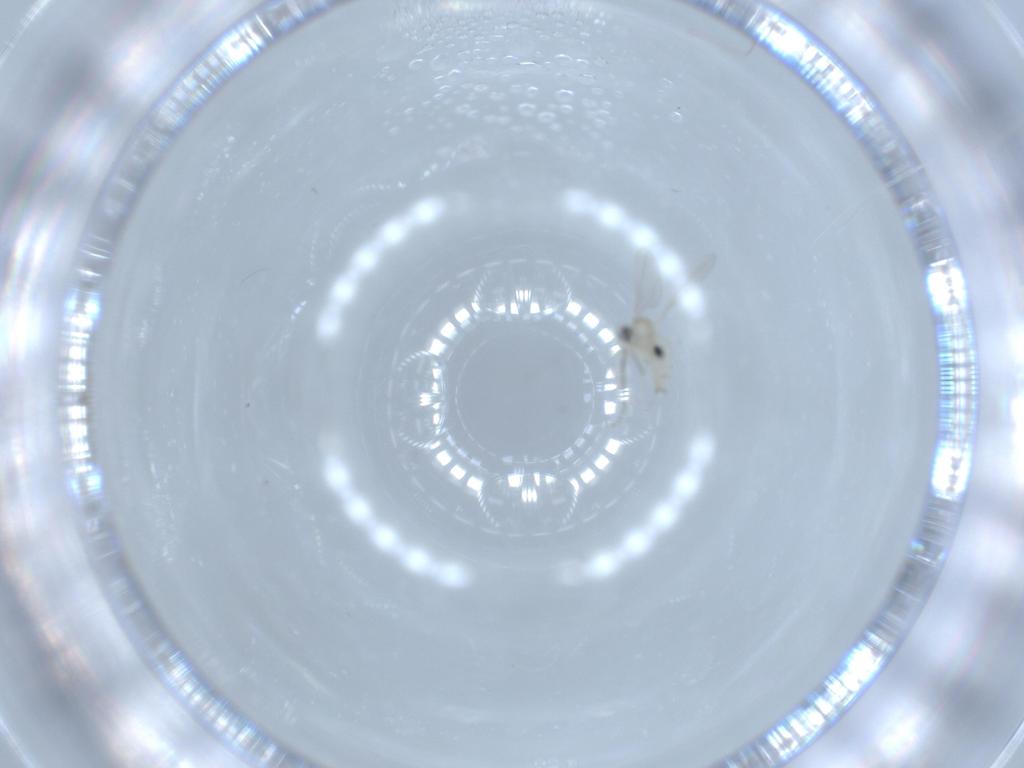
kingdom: Animalia
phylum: Arthropoda
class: Insecta
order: Diptera
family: Cecidomyiidae
